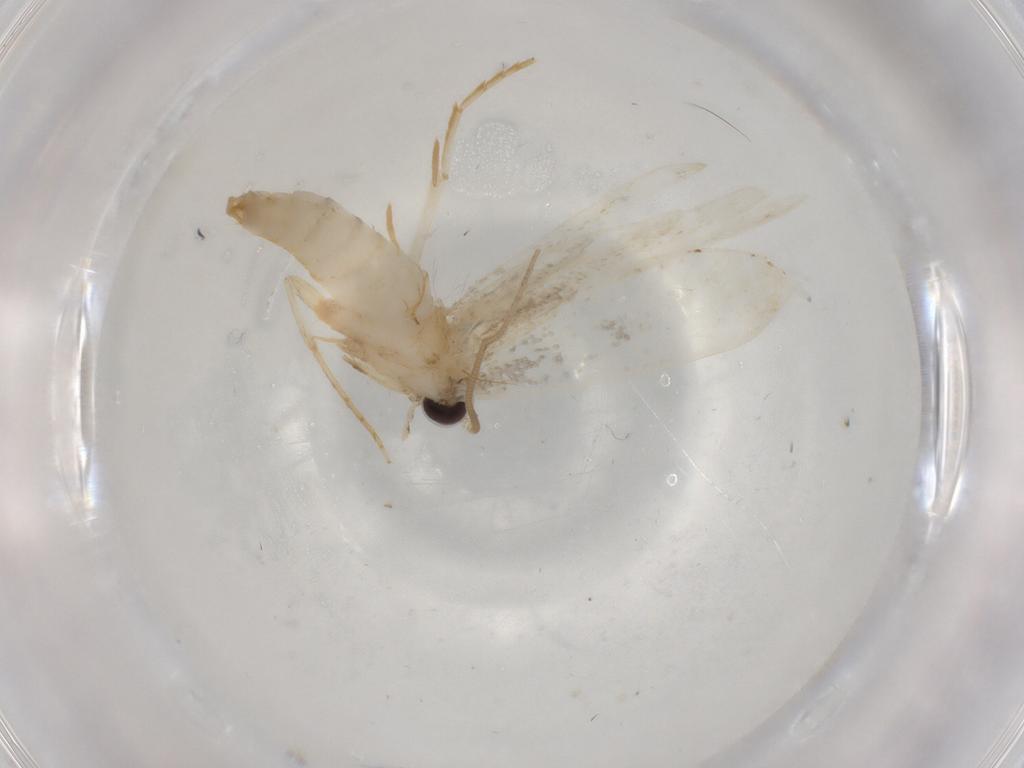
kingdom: Animalia
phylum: Arthropoda
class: Insecta
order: Lepidoptera
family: Tineidae
